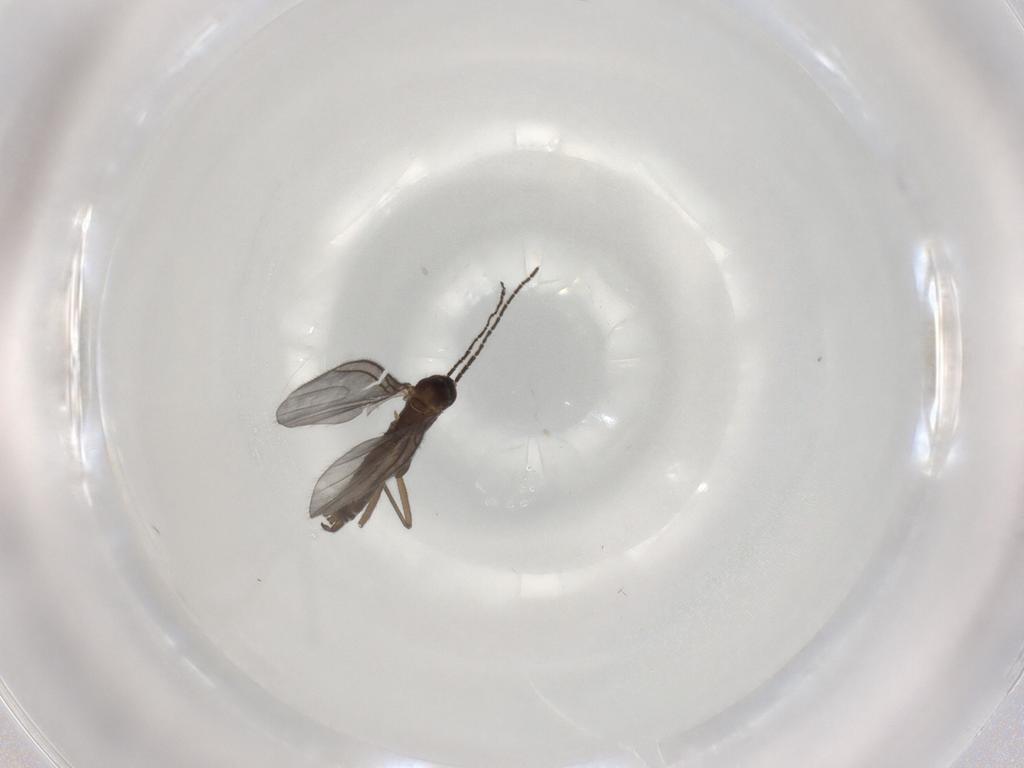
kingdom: Animalia
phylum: Arthropoda
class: Insecta
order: Diptera
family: Sciaridae
